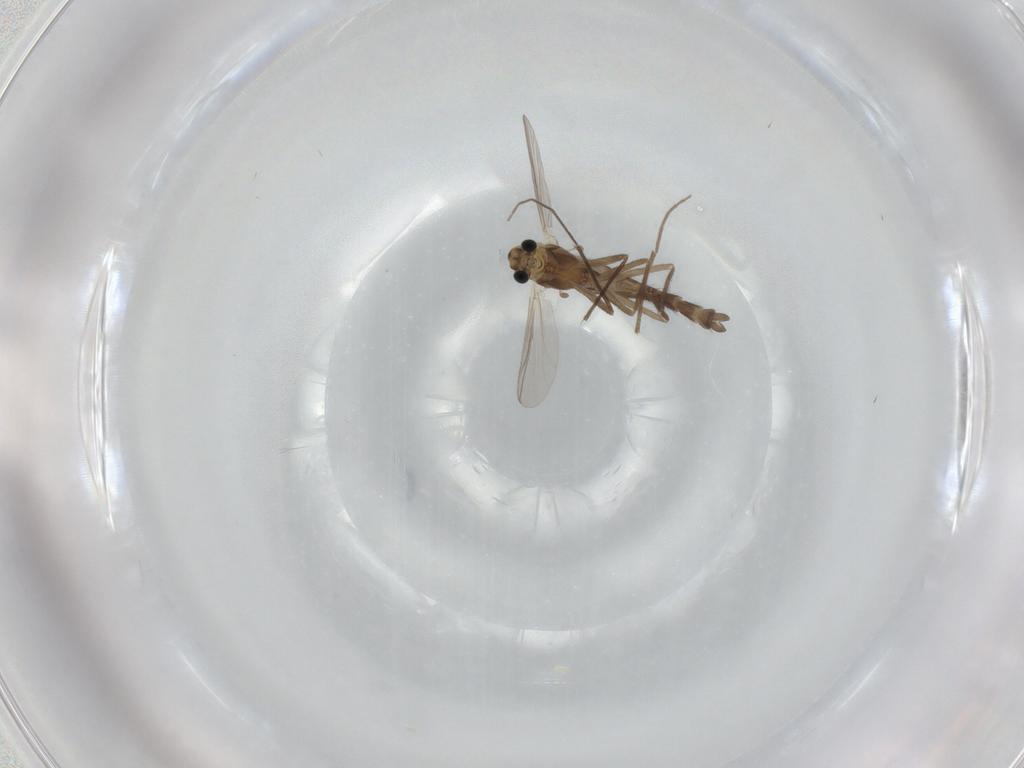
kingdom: Animalia
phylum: Arthropoda
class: Insecta
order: Diptera
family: Chironomidae
